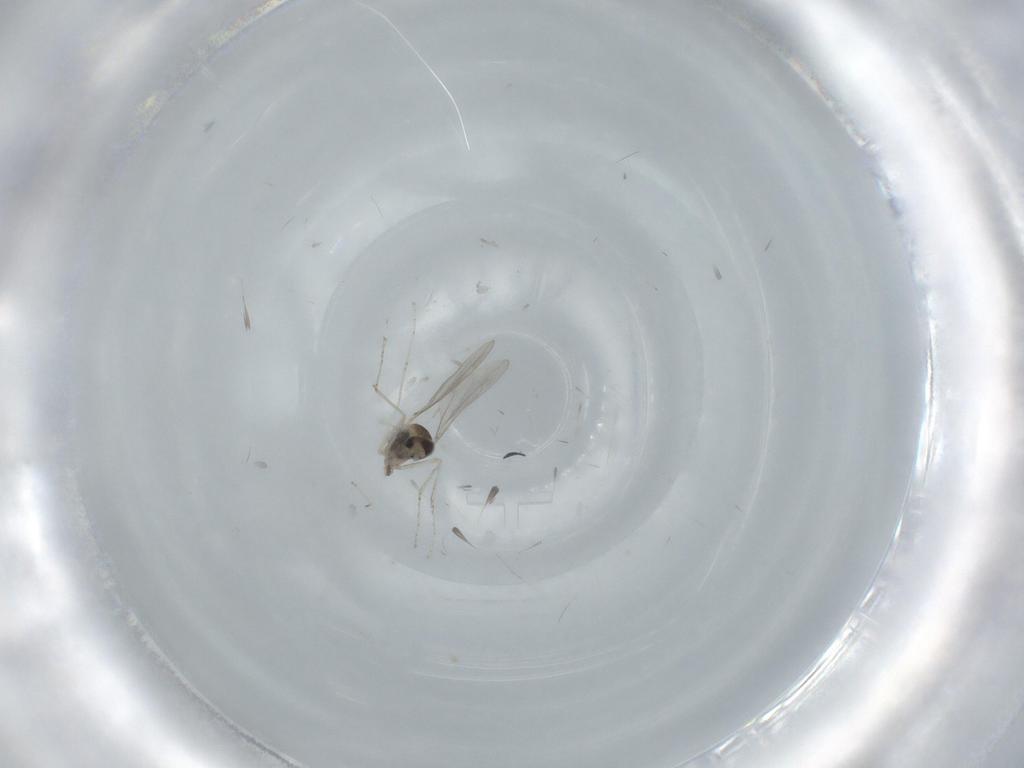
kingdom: Animalia
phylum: Arthropoda
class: Insecta
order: Diptera
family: Cecidomyiidae
